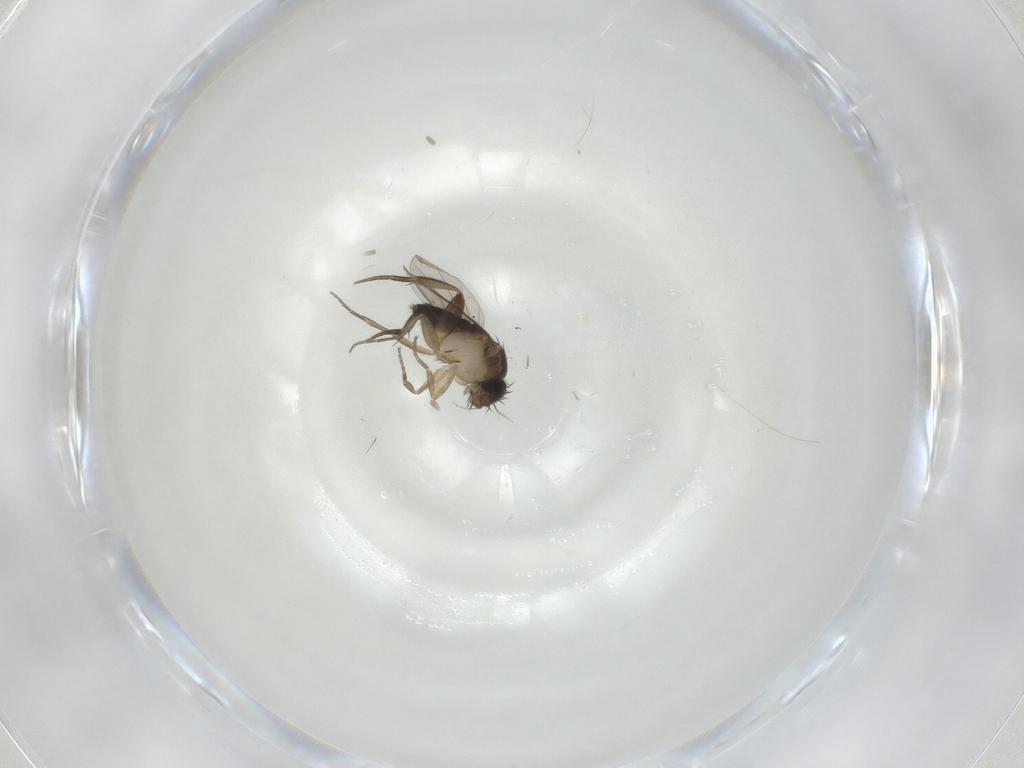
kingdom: Animalia
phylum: Arthropoda
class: Insecta
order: Diptera
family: Phoridae
